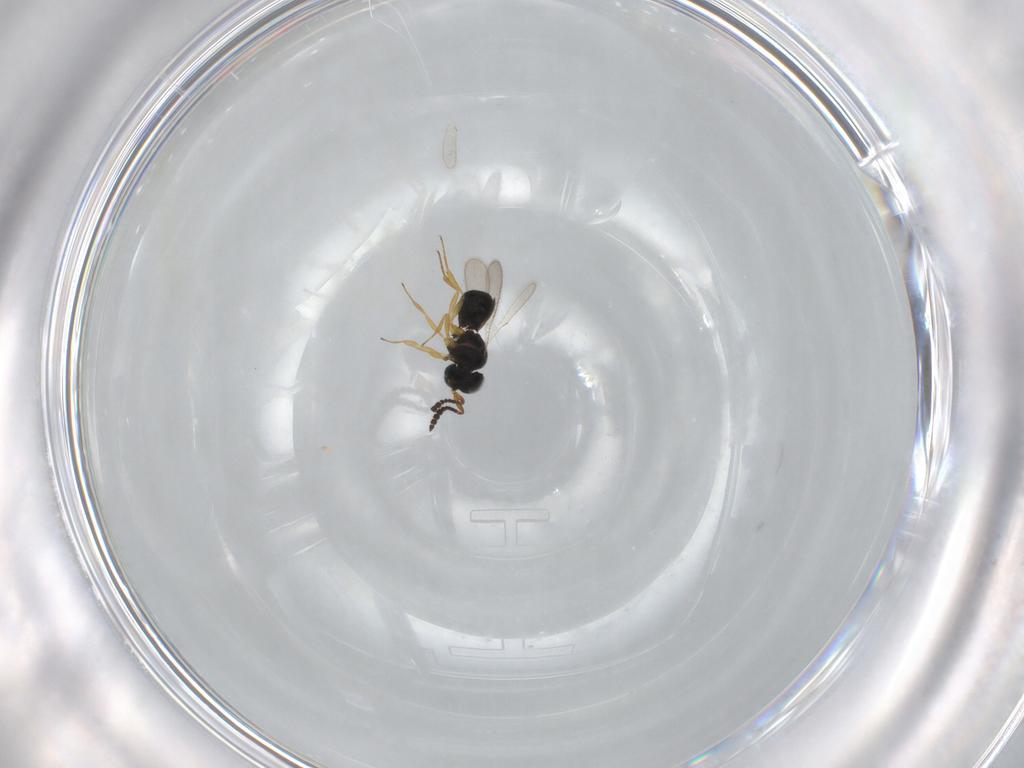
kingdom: Animalia
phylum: Arthropoda
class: Insecta
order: Hymenoptera
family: Scelionidae
